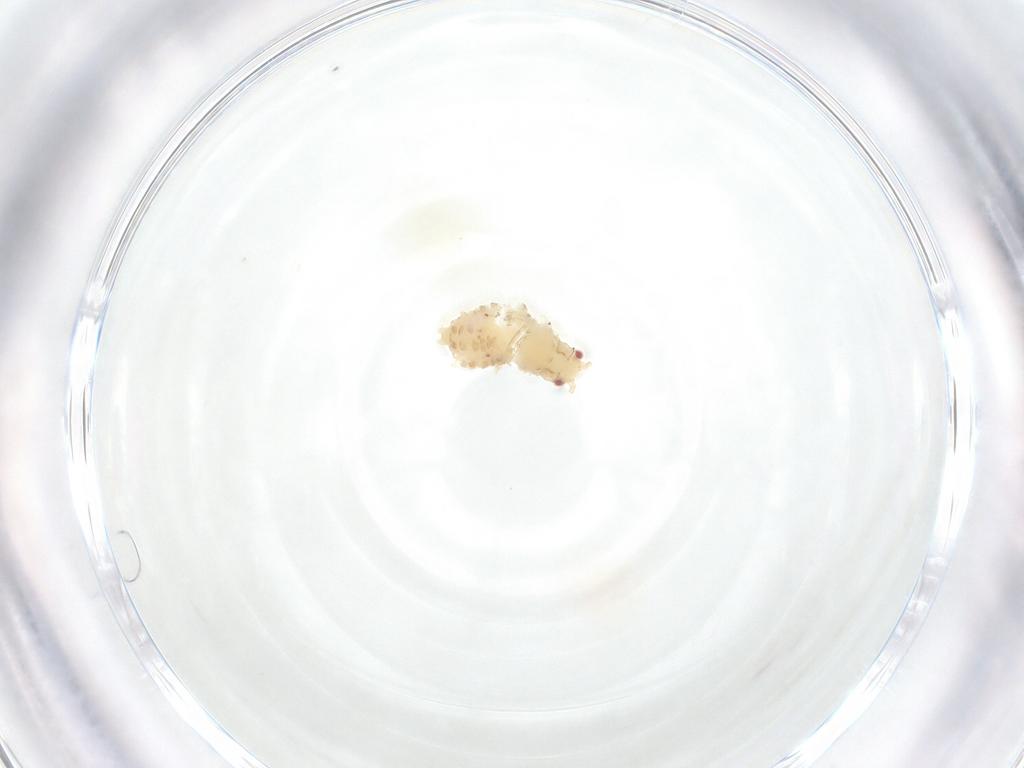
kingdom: Animalia
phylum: Arthropoda
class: Insecta
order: Hemiptera
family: Aphididae
